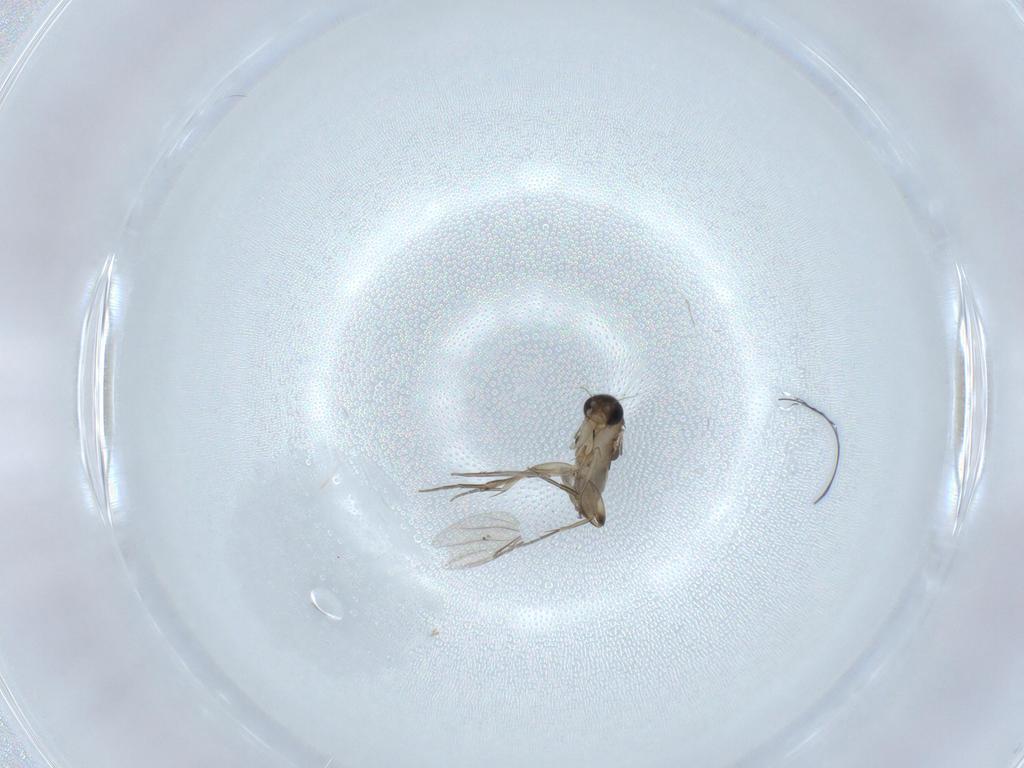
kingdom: Animalia
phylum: Arthropoda
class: Insecta
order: Diptera
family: Phoridae
